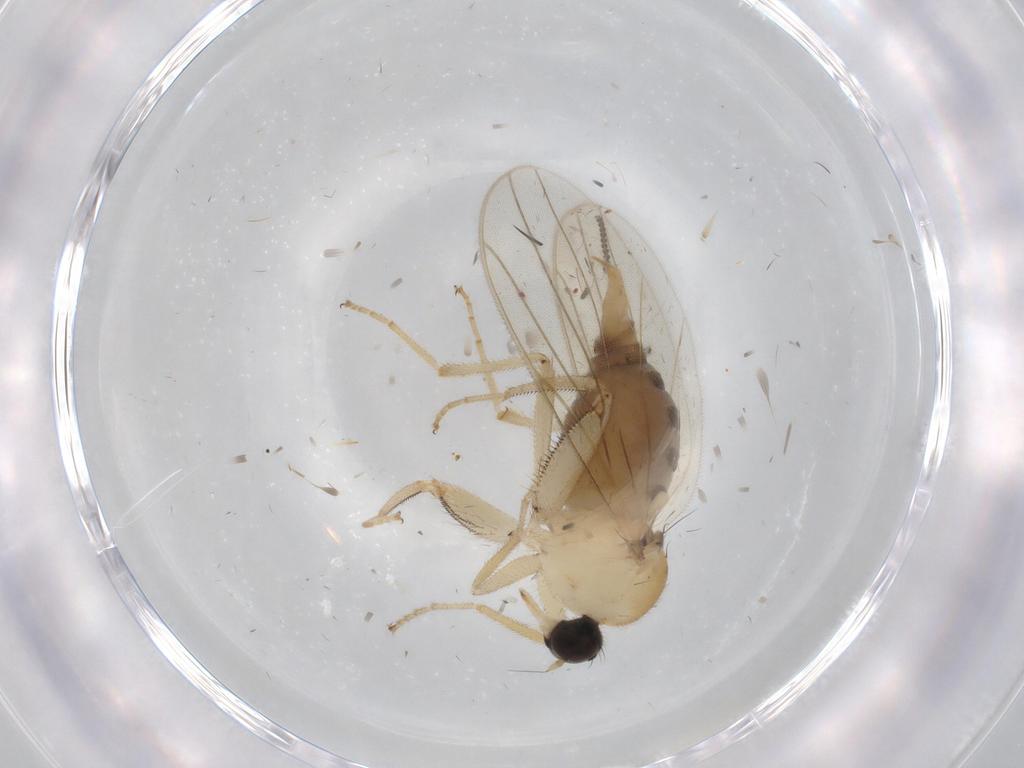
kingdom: Animalia
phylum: Arthropoda
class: Insecta
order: Diptera
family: Hybotidae
